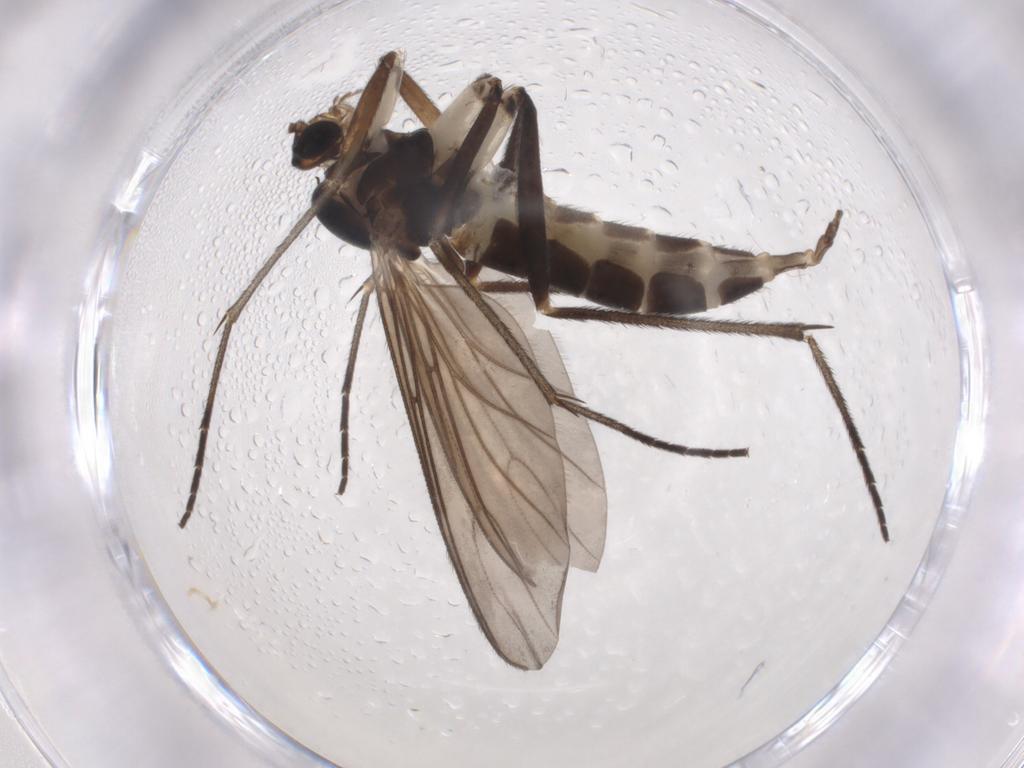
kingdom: Animalia
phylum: Arthropoda
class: Insecta
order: Diptera
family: Sciaridae
